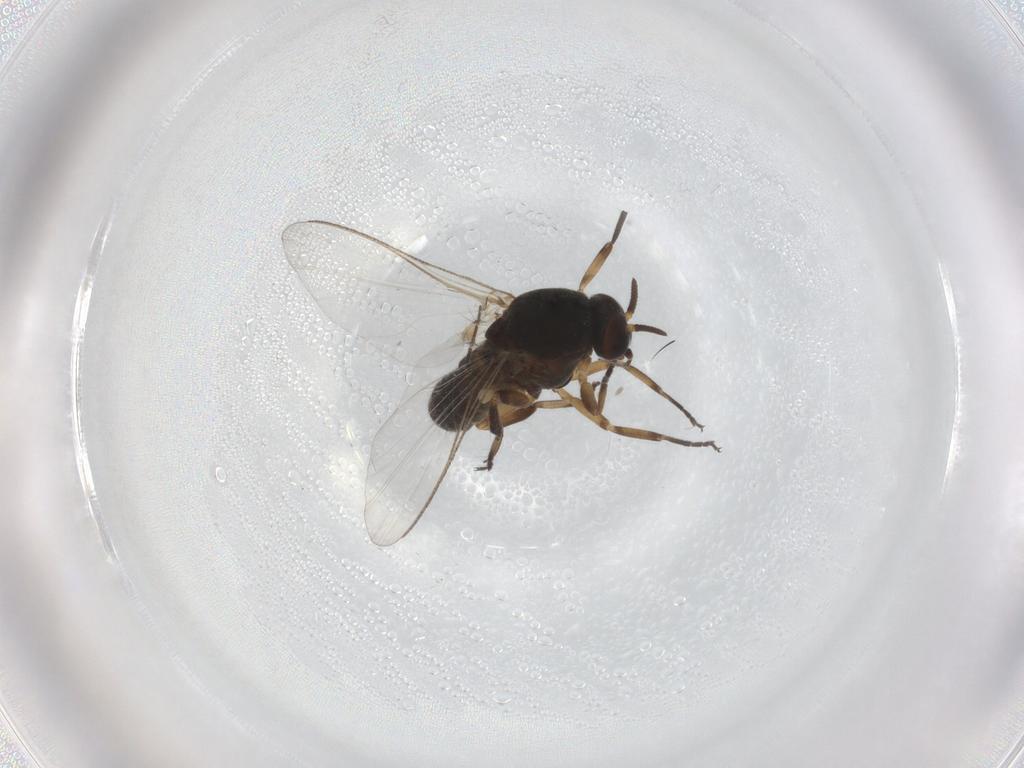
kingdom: Animalia
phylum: Arthropoda
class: Insecta
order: Diptera
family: Agromyzidae
